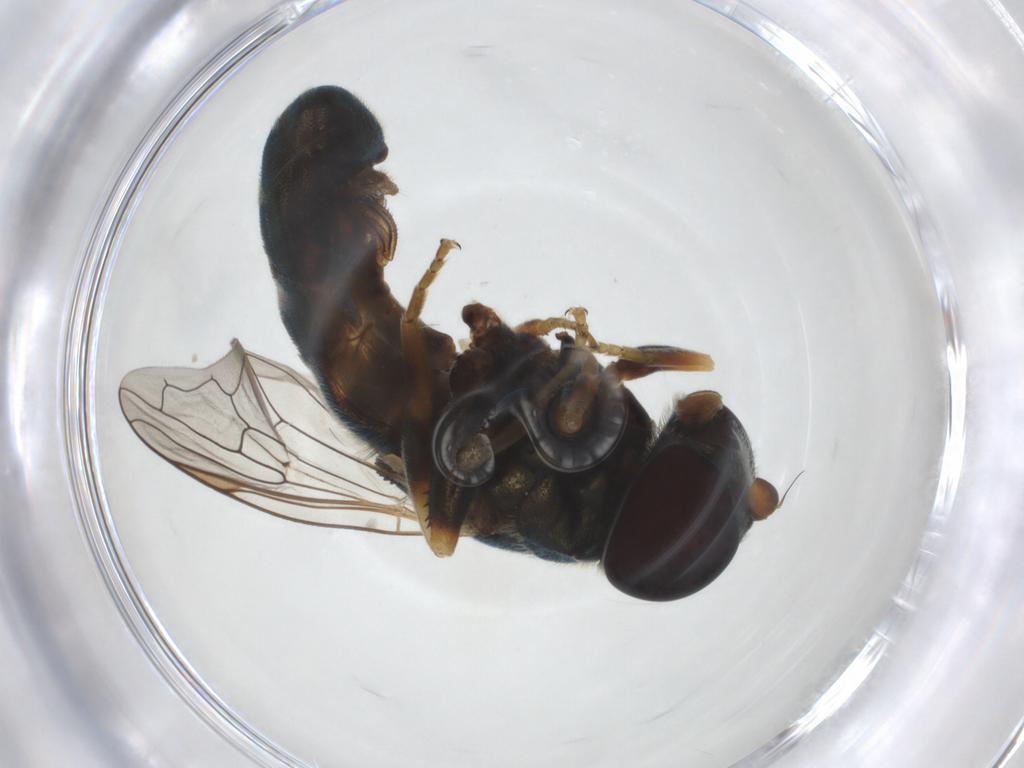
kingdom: Animalia
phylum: Arthropoda
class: Insecta
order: Diptera
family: Syrphidae
